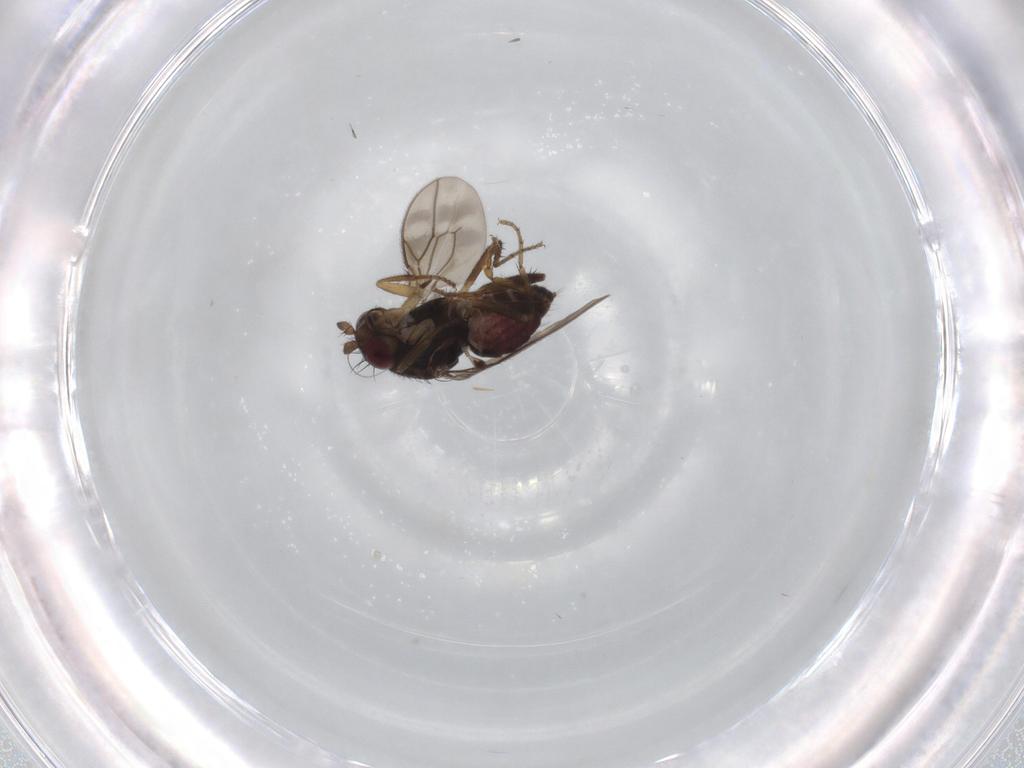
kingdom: Animalia
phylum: Arthropoda
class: Insecta
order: Diptera
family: Sphaeroceridae
